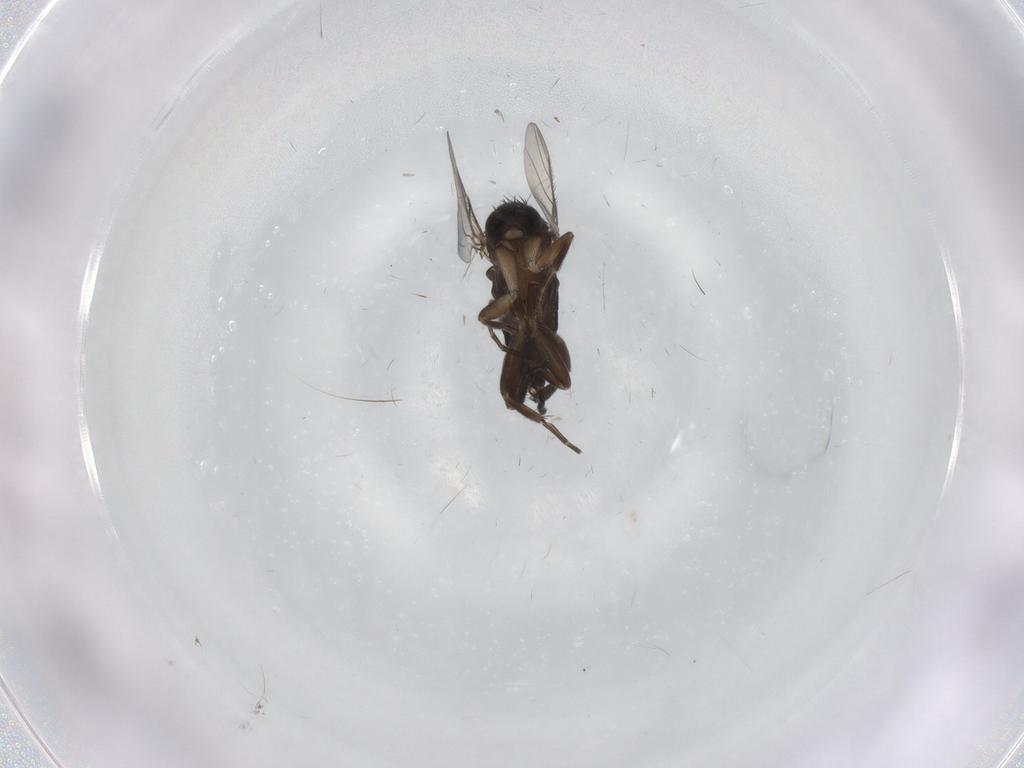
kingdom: Animalia
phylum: Arthropoda
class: Insecta
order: Diptera
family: Phoridae
